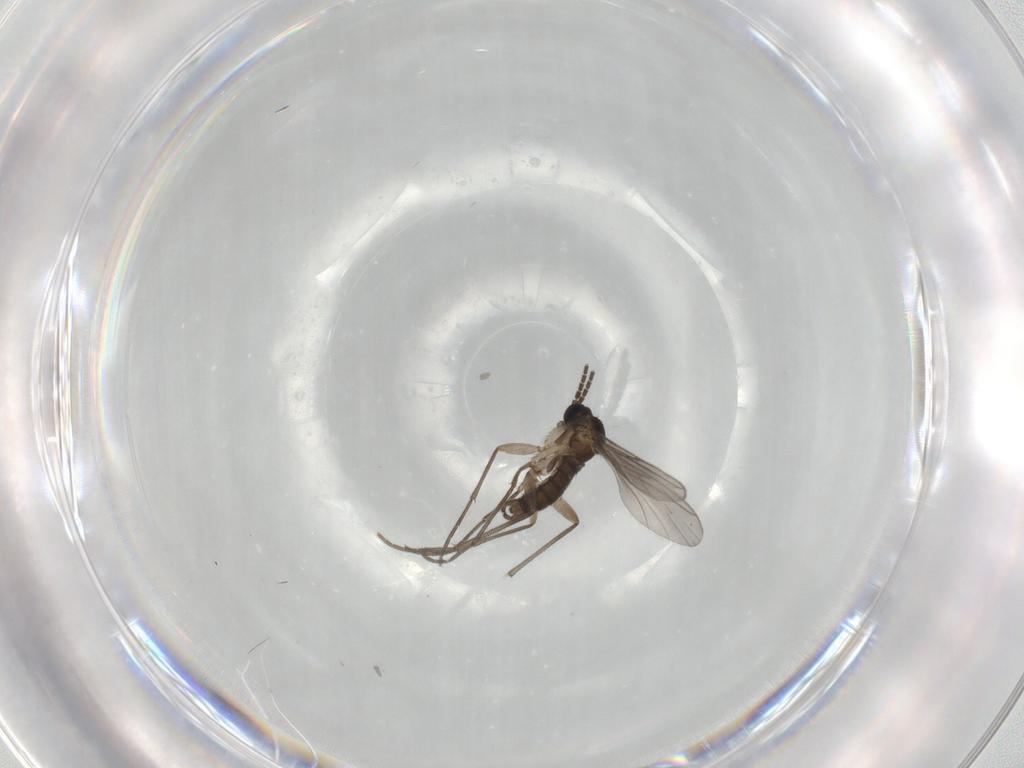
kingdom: Animalia
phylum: Arthropoda
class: Insecta
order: Diptera
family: Sciaridae
